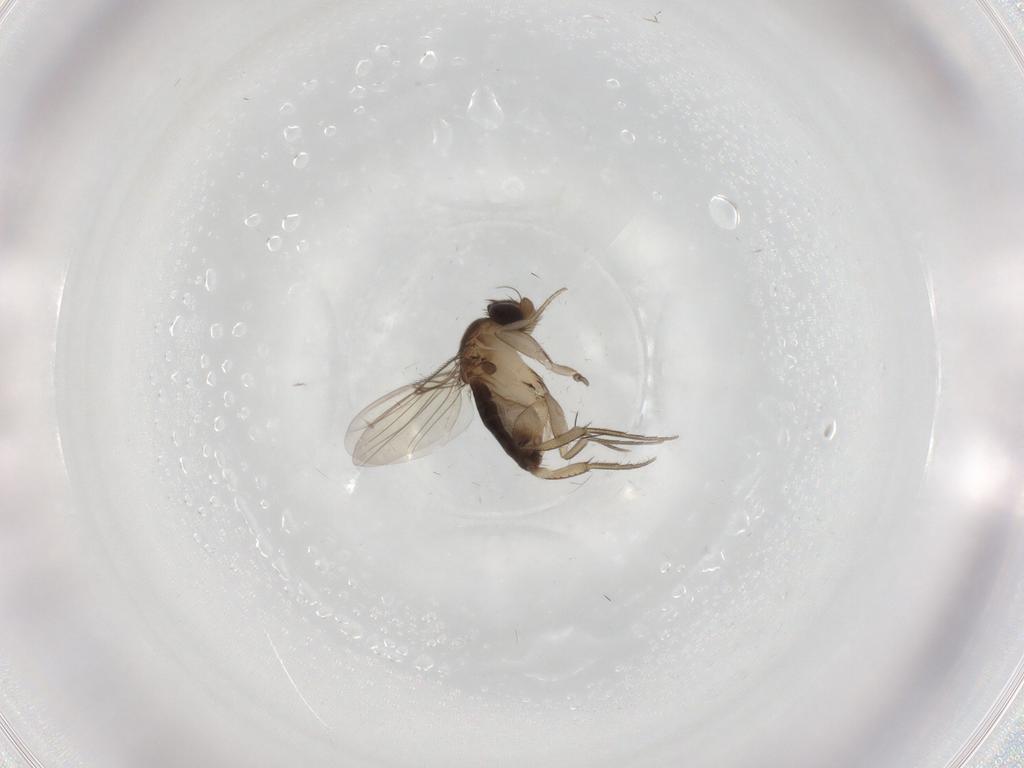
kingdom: Animalia
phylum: Arthropoda
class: Insecta
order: Diptera
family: Phoridae
